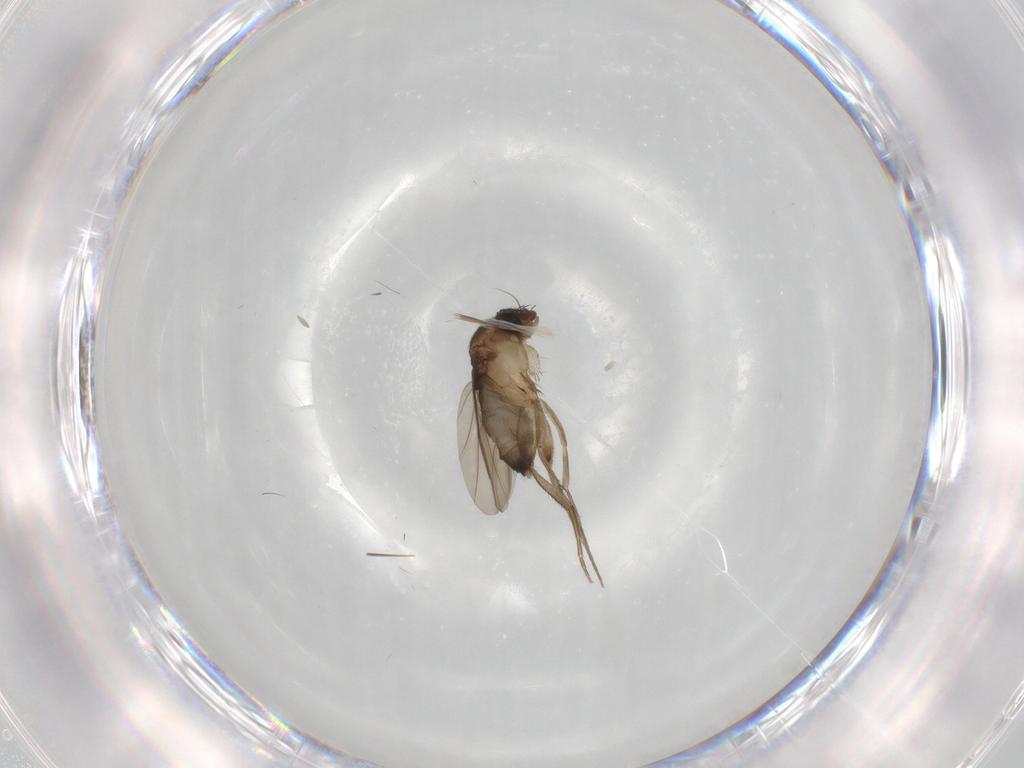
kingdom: Animalia
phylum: Arthropoda
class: Insecta
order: Diptera
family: Phoridae
